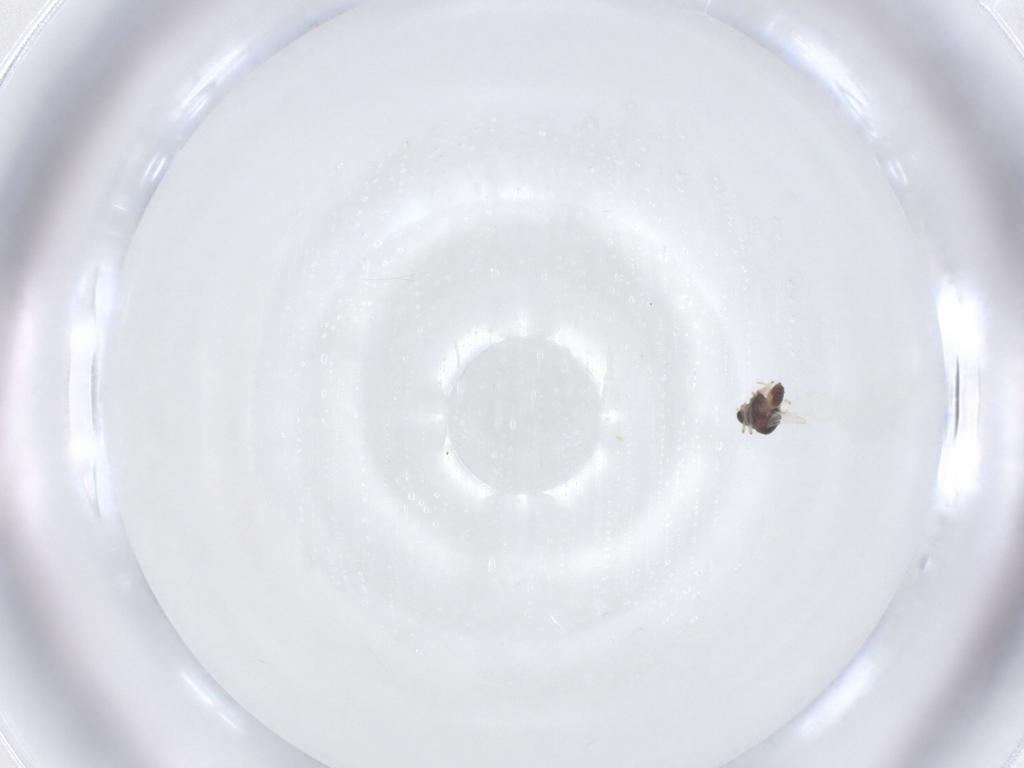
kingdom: Animalia
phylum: Arthropoda
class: Insecta
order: Diptera
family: Chironomidae
